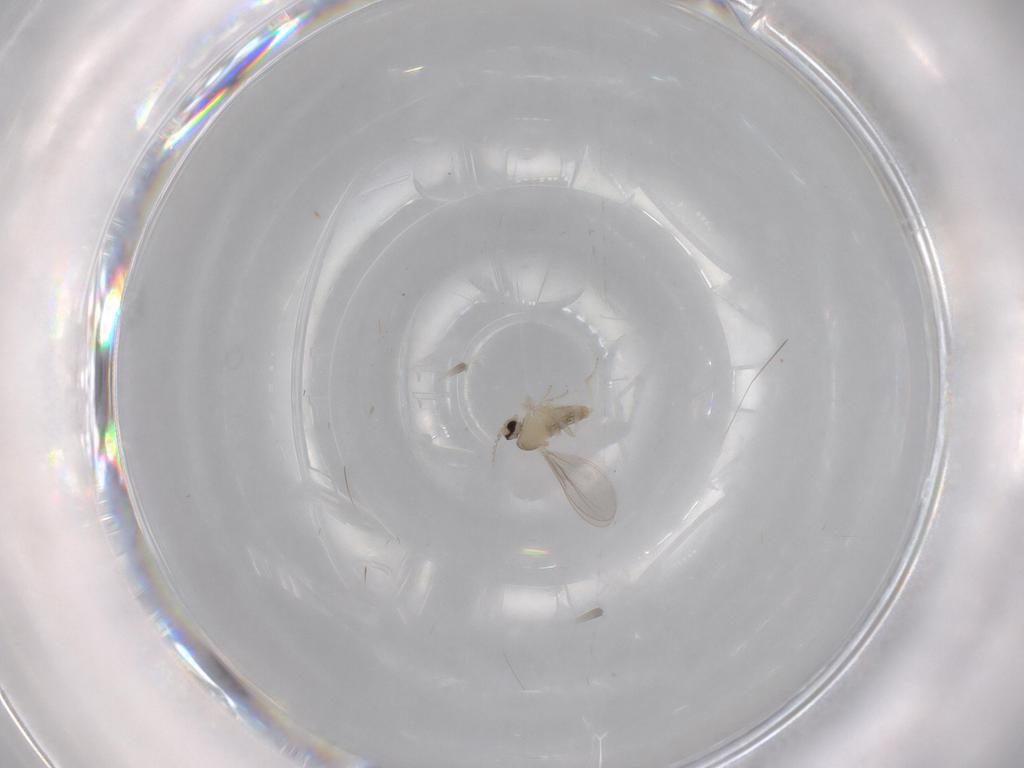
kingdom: Animalia
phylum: Arthropoda
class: Insecta
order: Diptera
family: Cecidomyiidae
